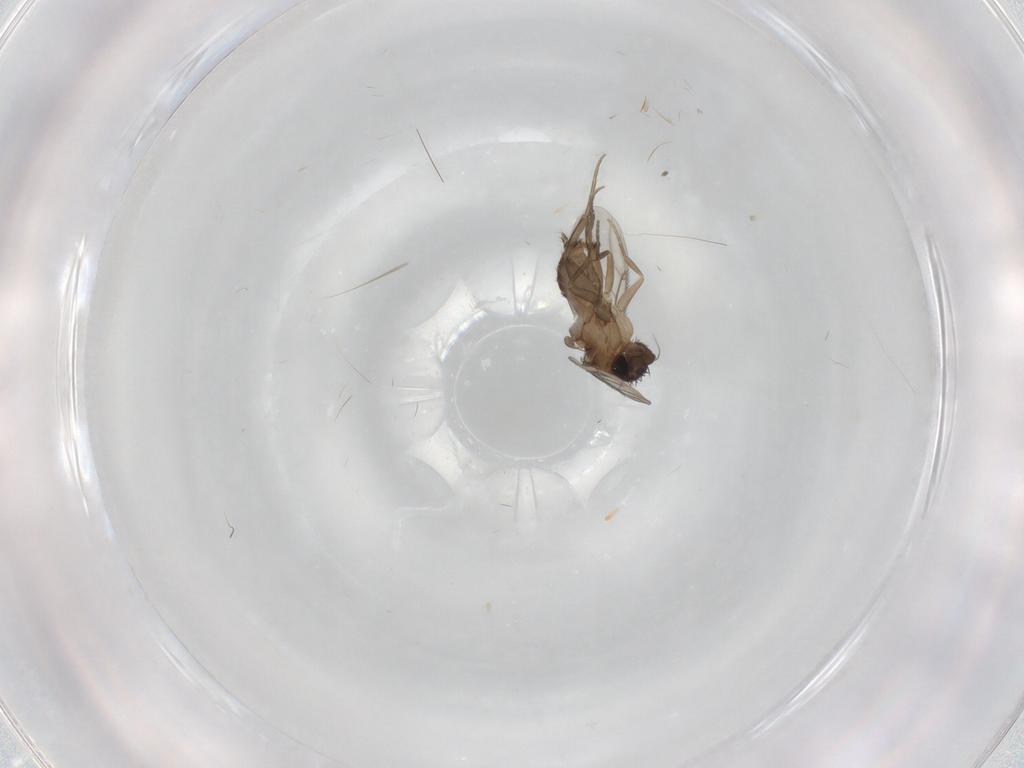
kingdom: Animalia
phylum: Arthropoda
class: Insecta
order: Diptera
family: Phoridae
